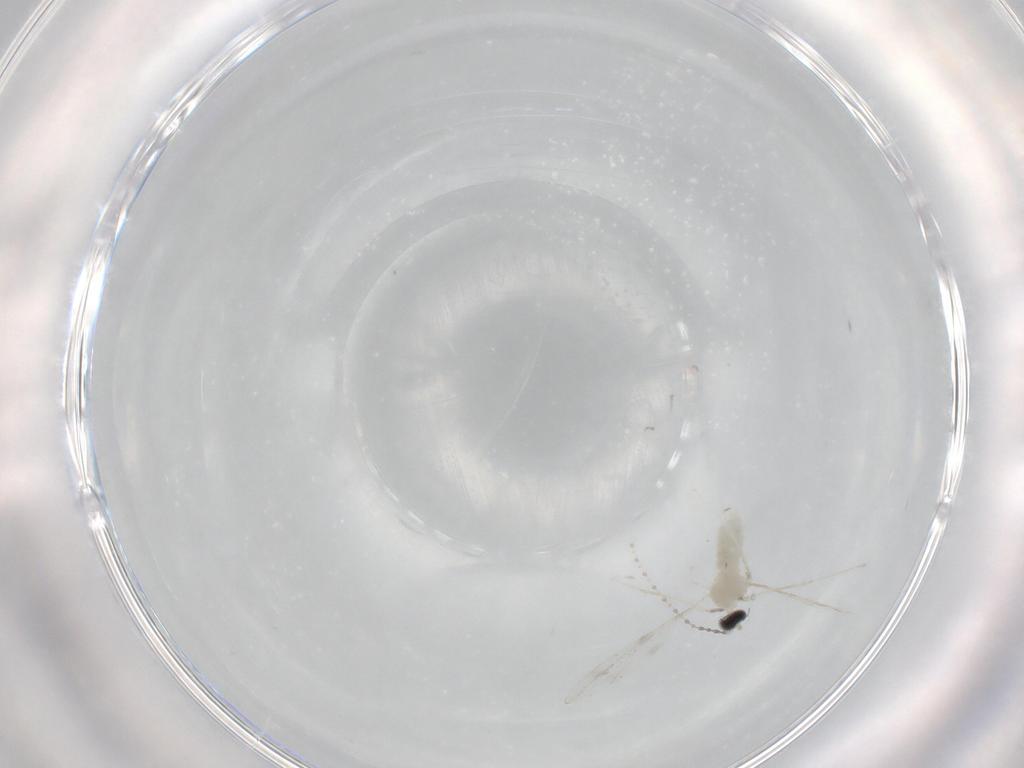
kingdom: Animalia
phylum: Arthropoda
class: Insecta
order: Diptera
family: Cecidomyiidae
